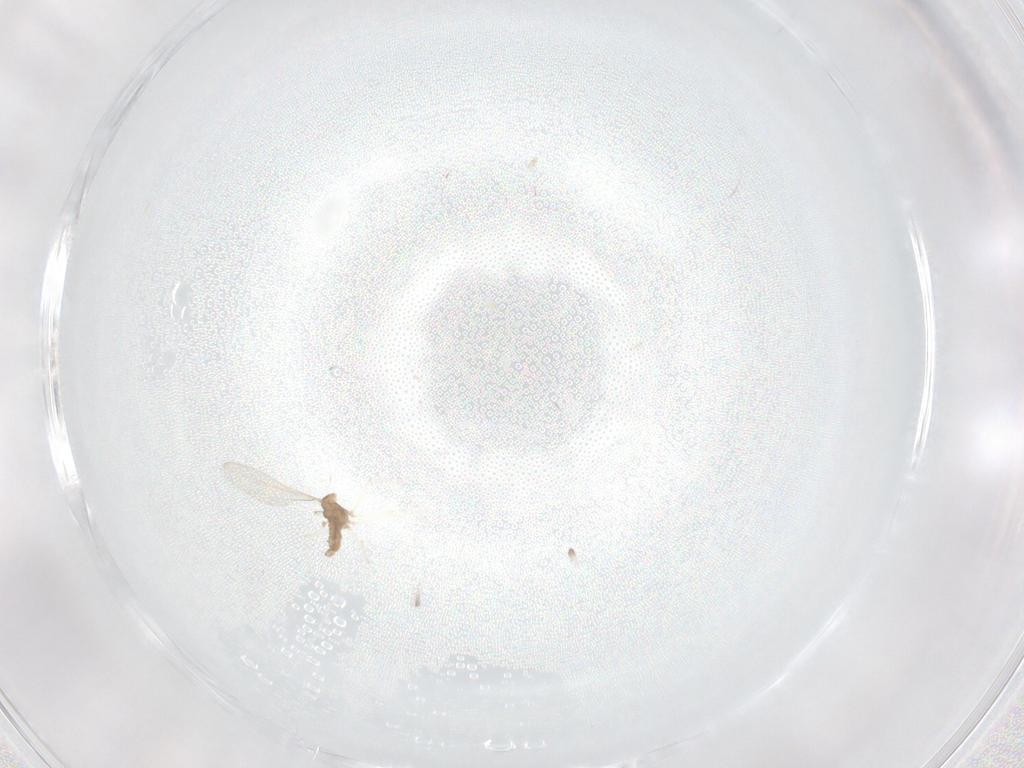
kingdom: Animalia
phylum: Arthropoda
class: Insecta
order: Diptera
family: Cecidomyiidae
